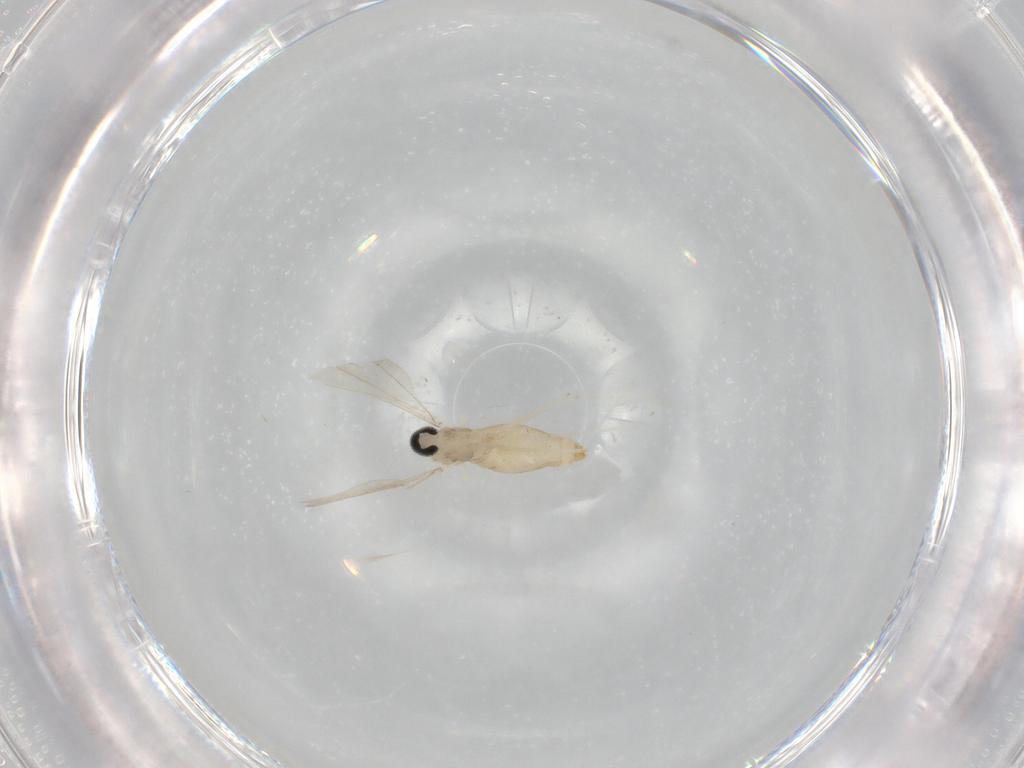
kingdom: Animalia
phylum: Arthropoda
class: Insecta
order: Diptera
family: Cecidomyiidae
